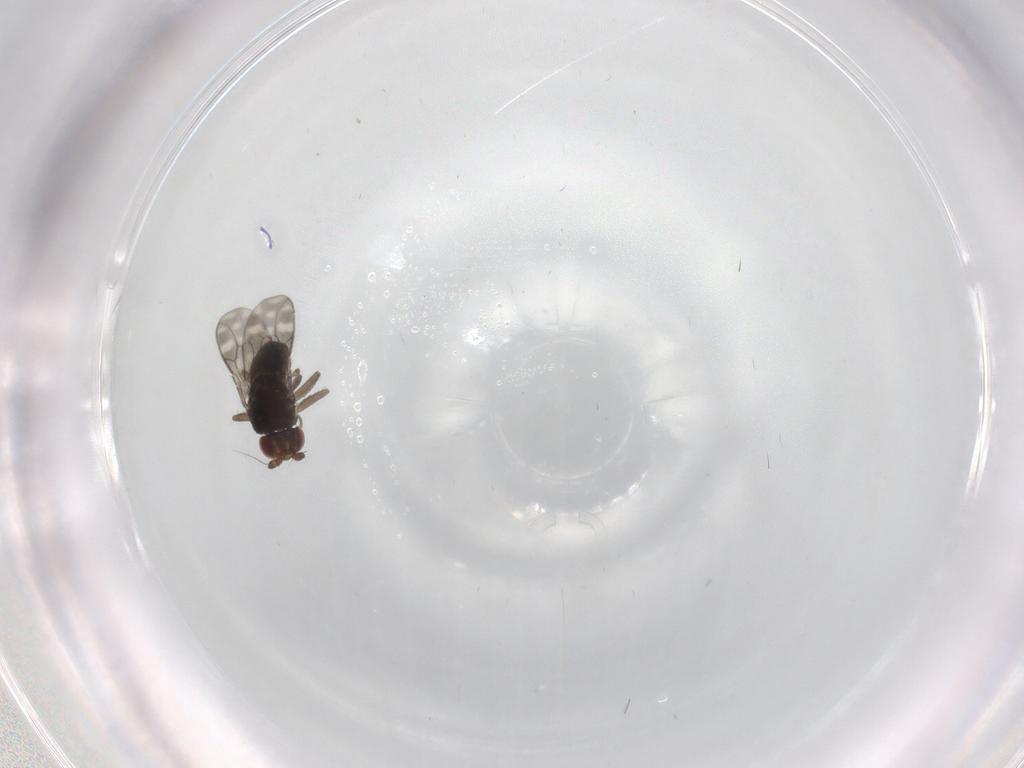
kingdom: Animalia
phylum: Arthropoda
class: Insecta
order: Diptera
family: Sphaeroceridae
